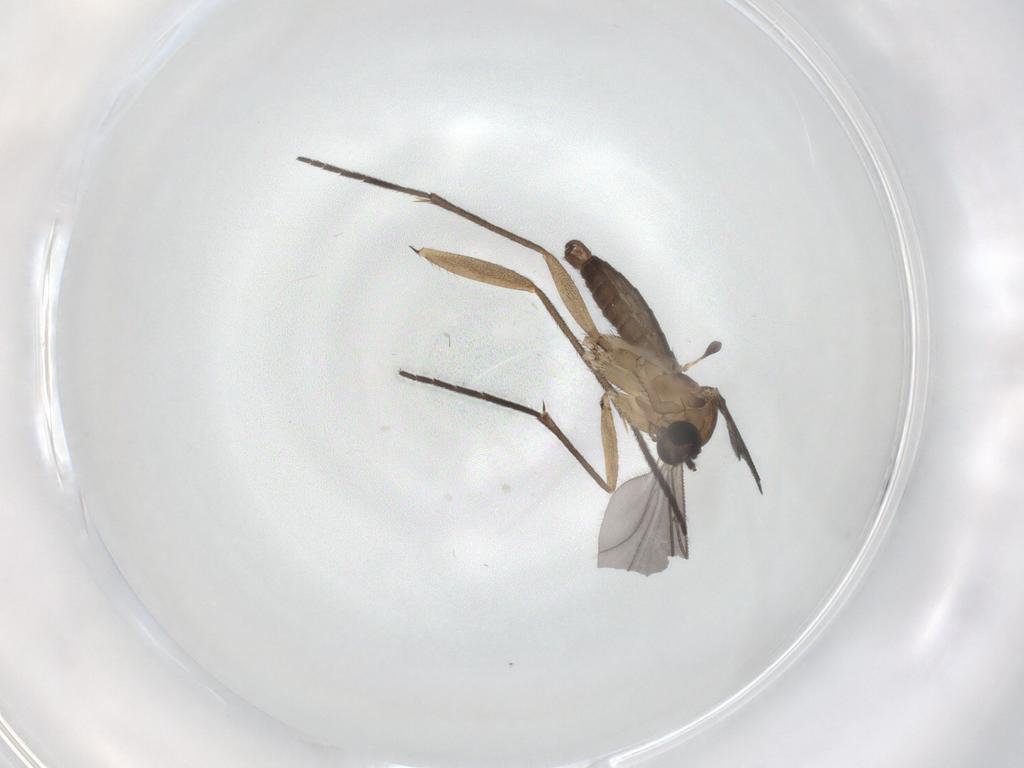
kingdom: Animalia
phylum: Arthropoda
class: Insecta
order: Diptera
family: Sciaridae
